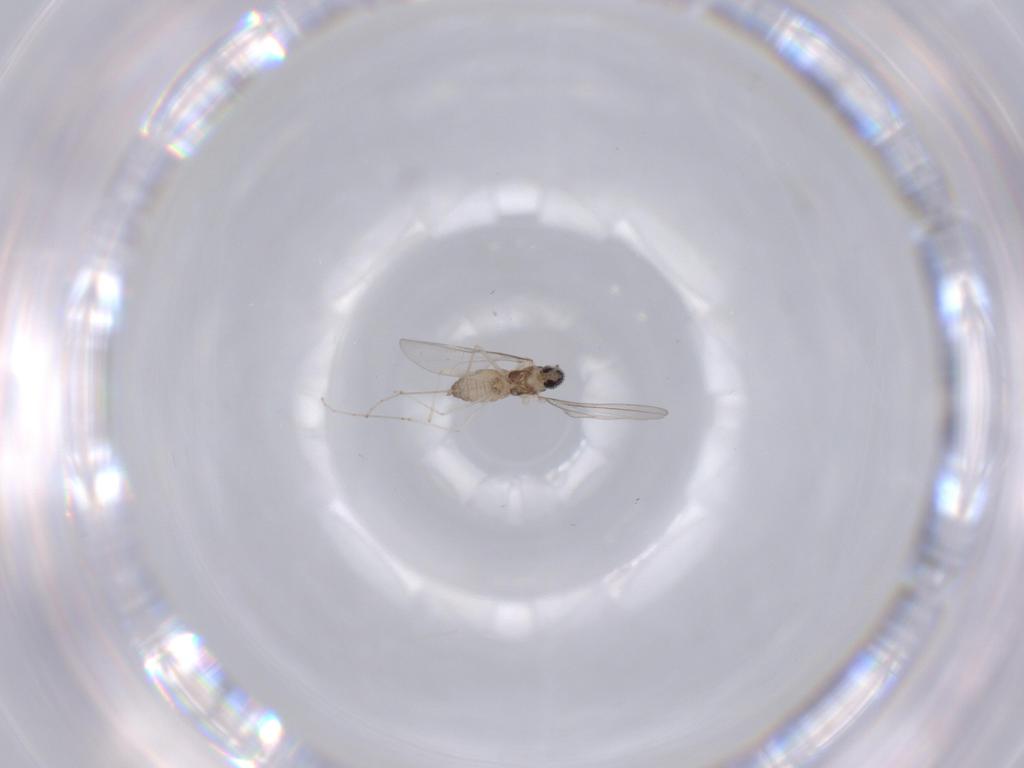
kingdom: Animalia
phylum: Arthropoda
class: Insecta
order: Diptera
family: Cecidomyiidae
